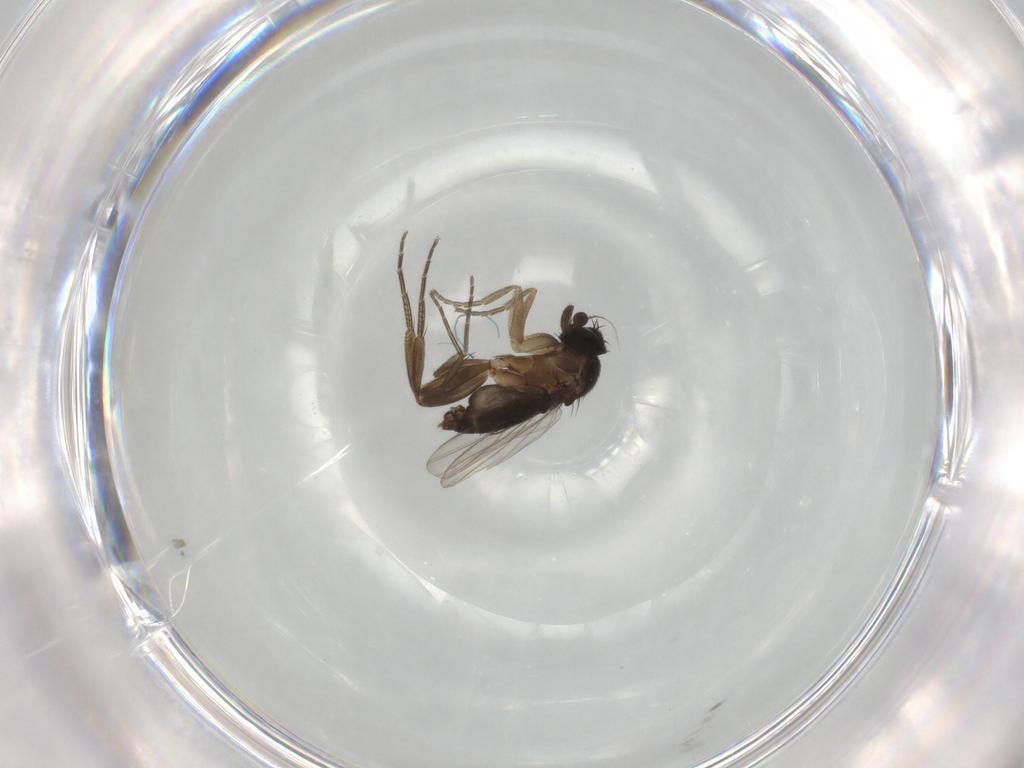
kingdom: Animalia
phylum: Arthropoda
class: Insecta
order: Diptera
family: Phoridae
